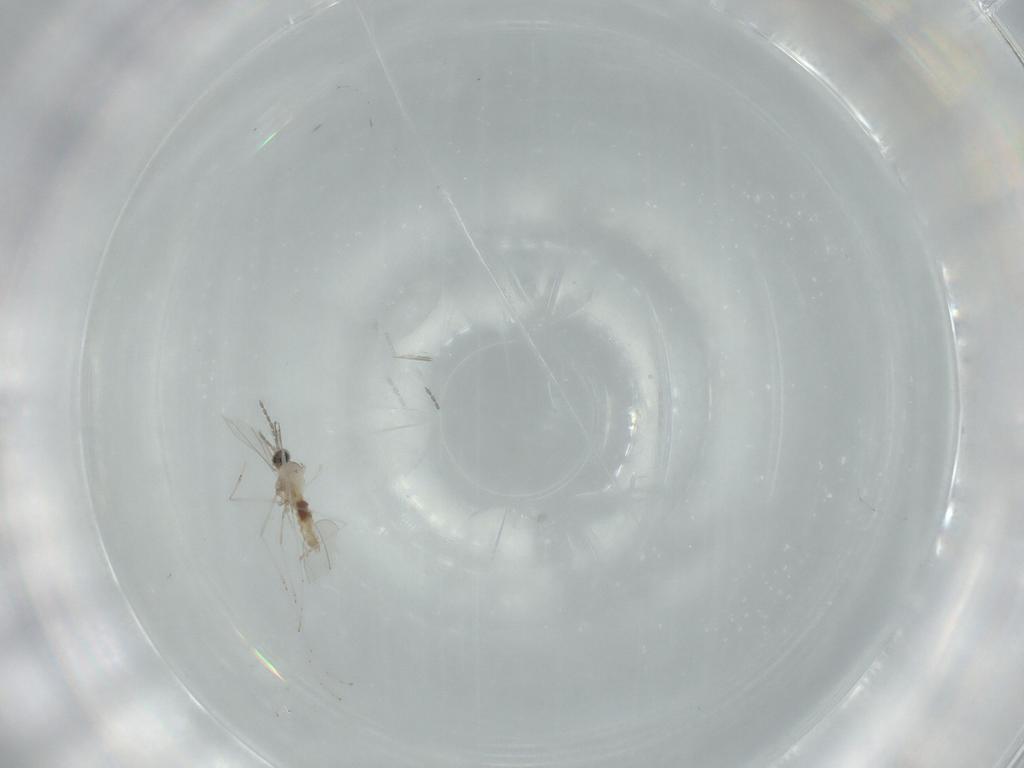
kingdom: Animalia
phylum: Arthropoda
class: Insecta
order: Diptera
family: Cecidomyiidae
